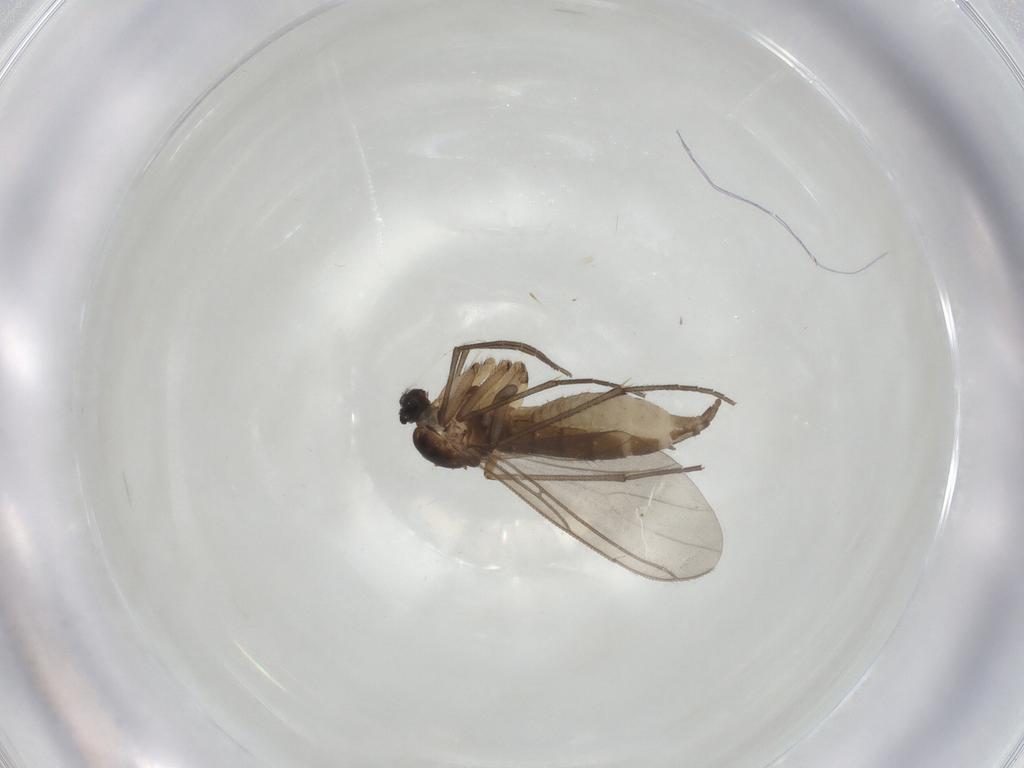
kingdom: Animalia
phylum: Arthropoda
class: Insecta
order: Diptera
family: Sciaridae
